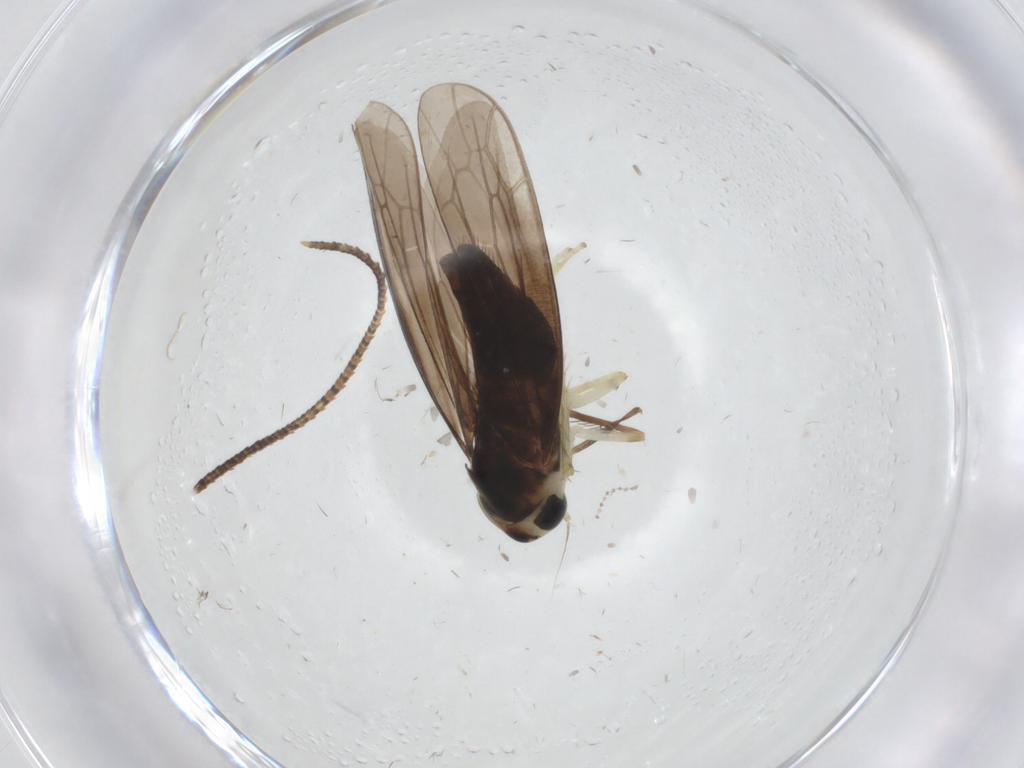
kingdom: Animalia
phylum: Arthropoda
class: Insecta
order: Hemiptera
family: Cicadellidae
